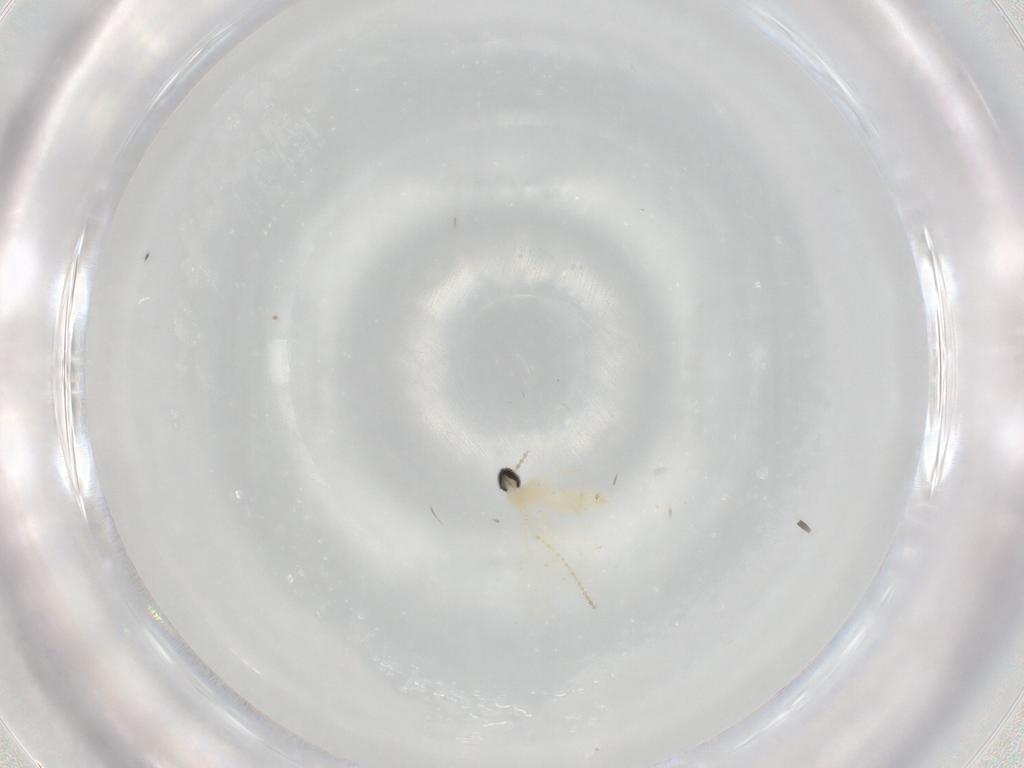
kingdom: Animalia
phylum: Arthropoda
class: Insecta
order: Diptera
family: Cecidomyiidae
